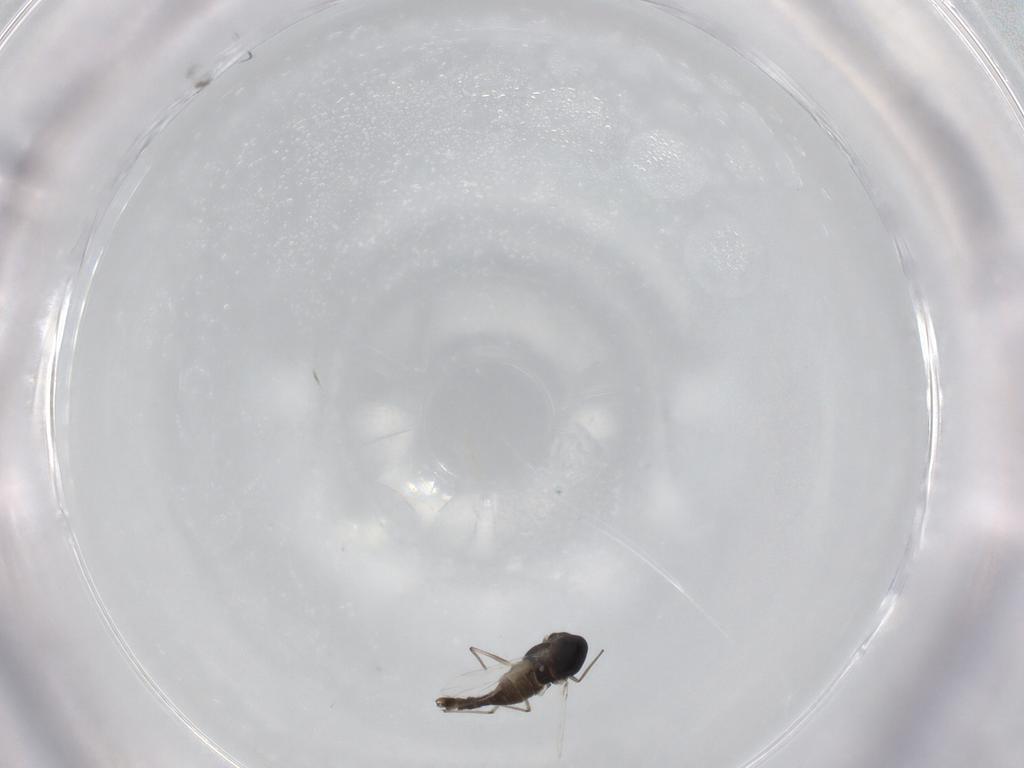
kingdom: Animalia
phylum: Arthropoda
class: Insecta
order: Diptera
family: Chironomidae
